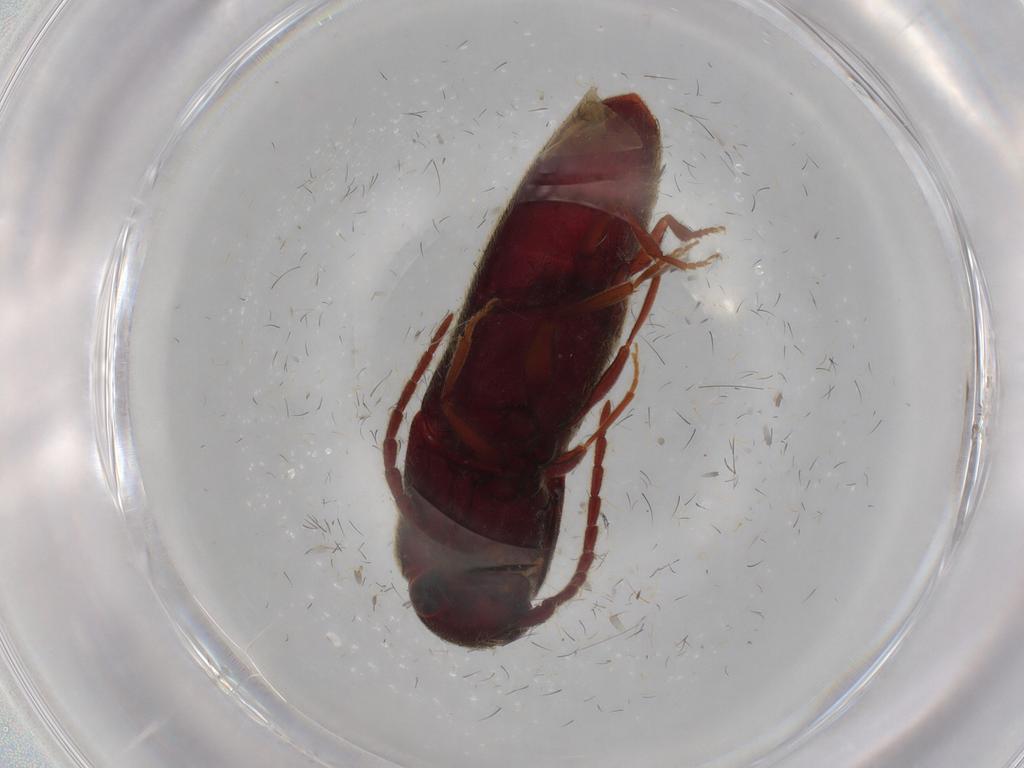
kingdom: Animalia
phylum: Arthropoda
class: Insecta
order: Coleoptera
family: Eucnemidae
